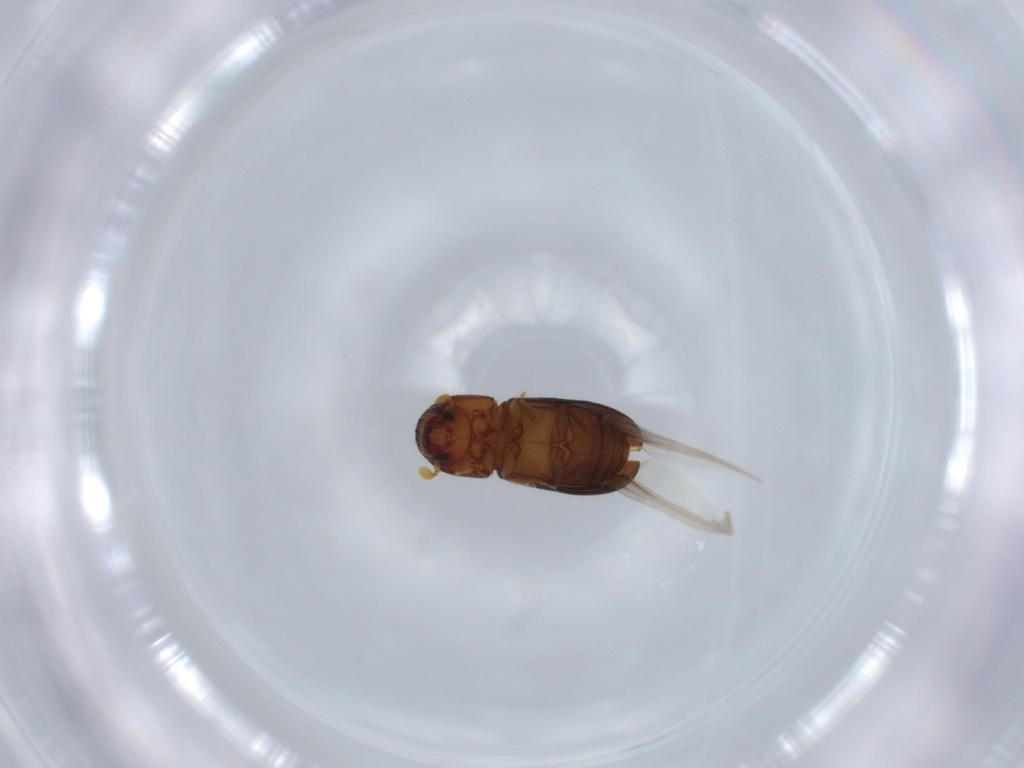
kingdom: Animalia
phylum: Arthropoda
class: Insecta
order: Coleoptera
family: Curculionidae
